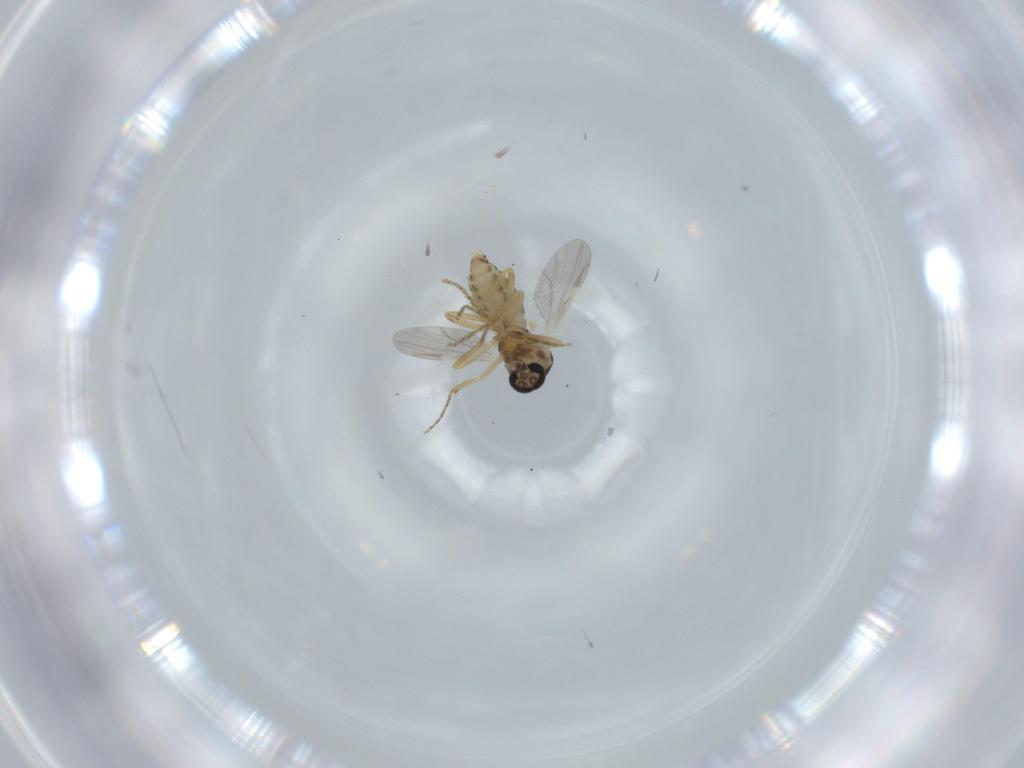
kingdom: Animalia
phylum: Arthropoda
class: Insecta
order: Diptera
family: Ceratopogonidae
